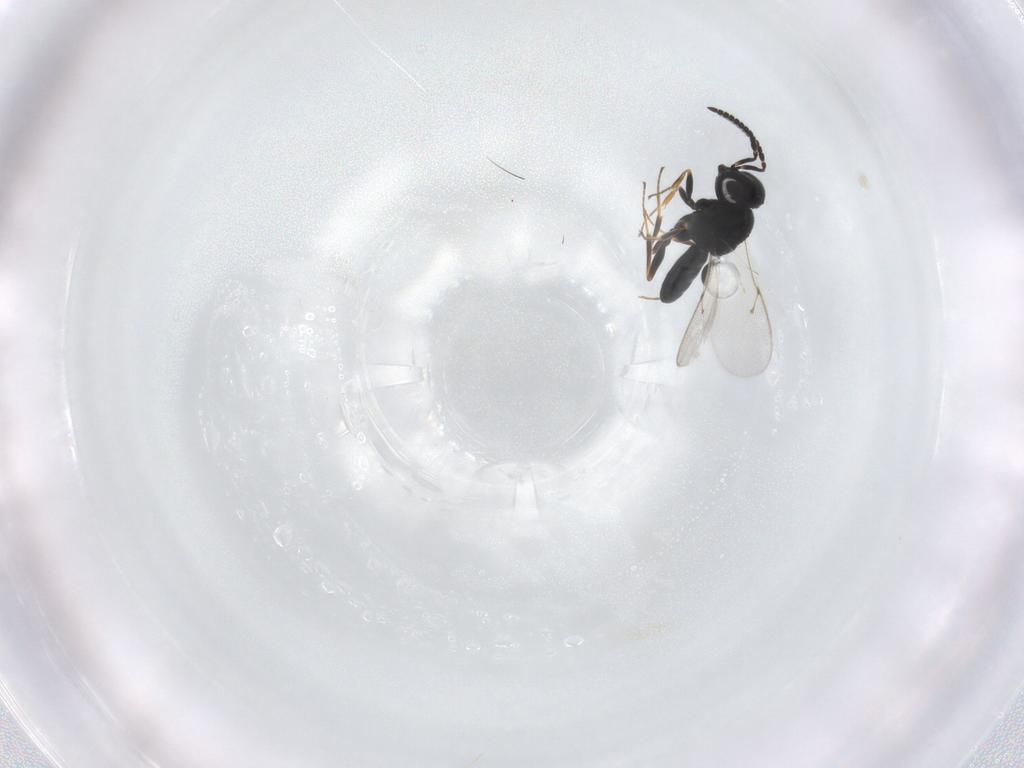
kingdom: Animalia
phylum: Arthropoda
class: Insecta
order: Hymenoptera
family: Scelionidae
